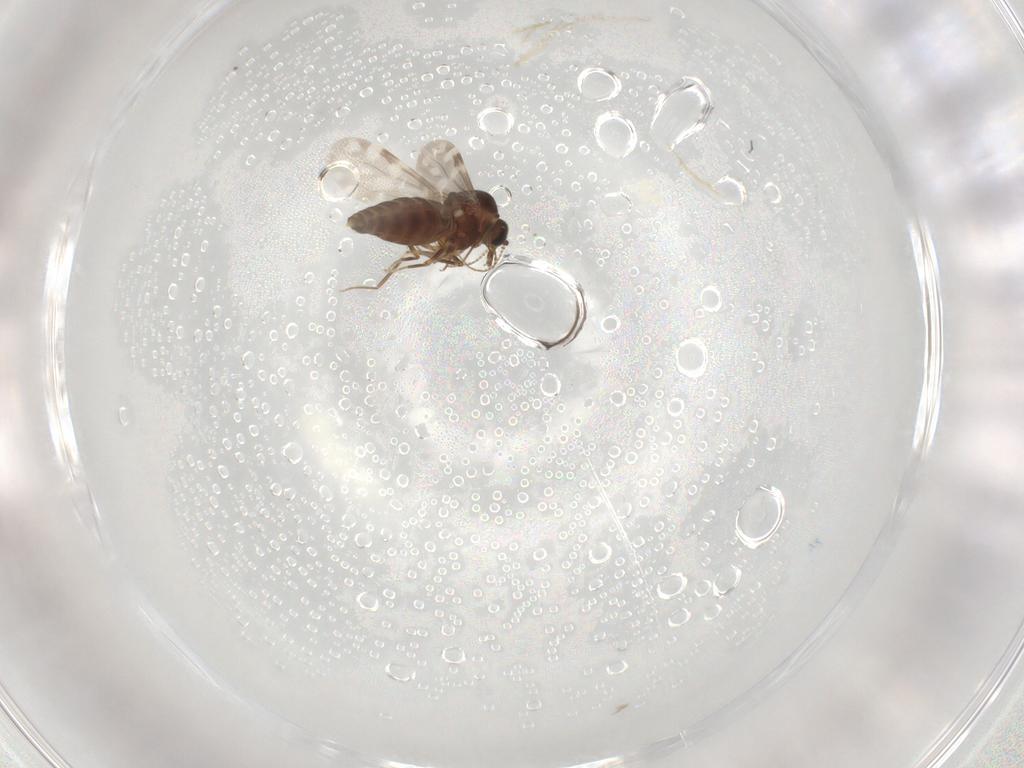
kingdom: Animalia
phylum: Arthropoda
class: Insecta
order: Diptera
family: Ceratopogonidae
